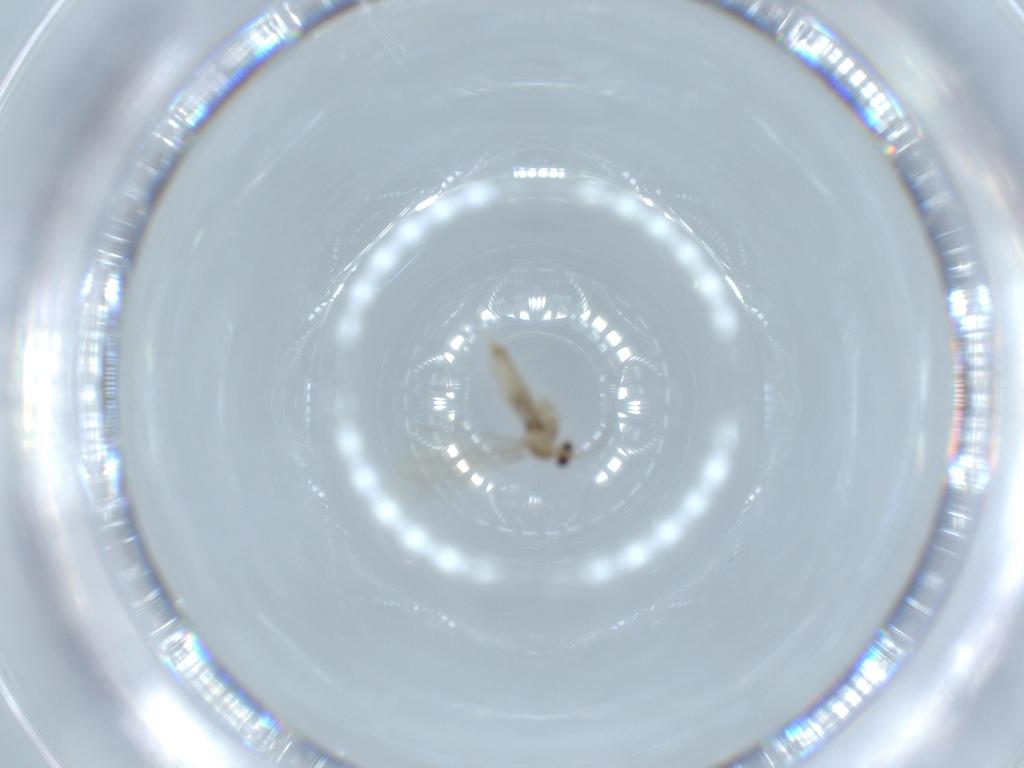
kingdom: Animalia
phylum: Arthropoda
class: Insecta
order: Diptera
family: Cecidomyiidae
